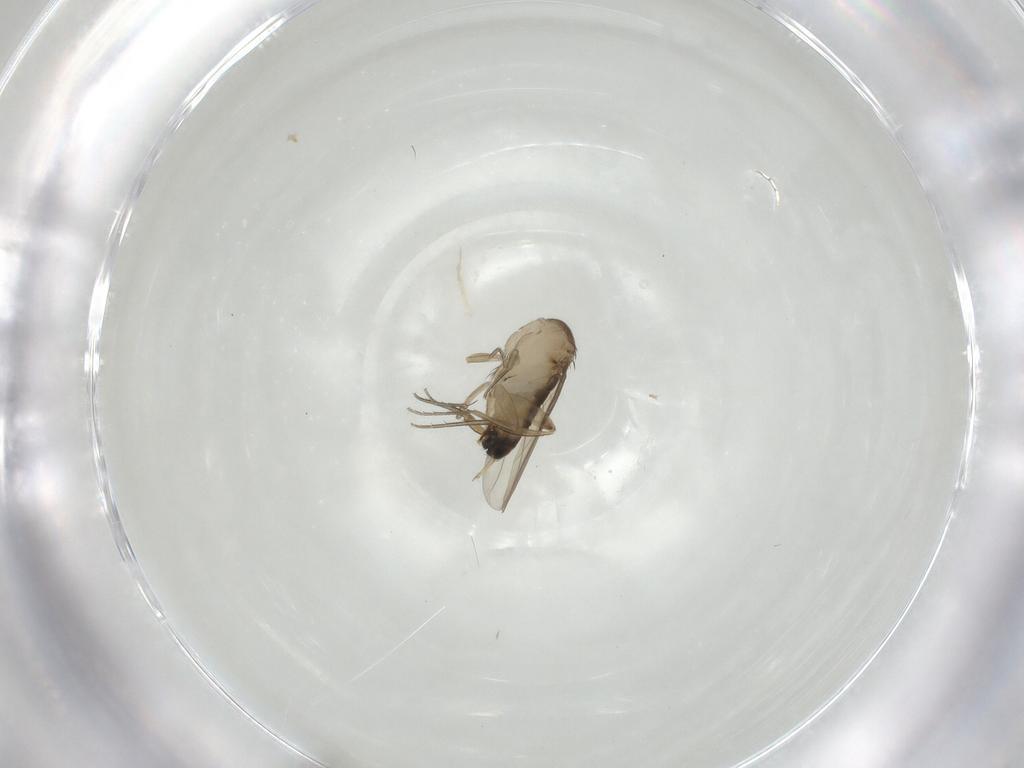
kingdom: Animalia
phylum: Arthropoda
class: Insecta
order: Diptera
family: Phoridae
